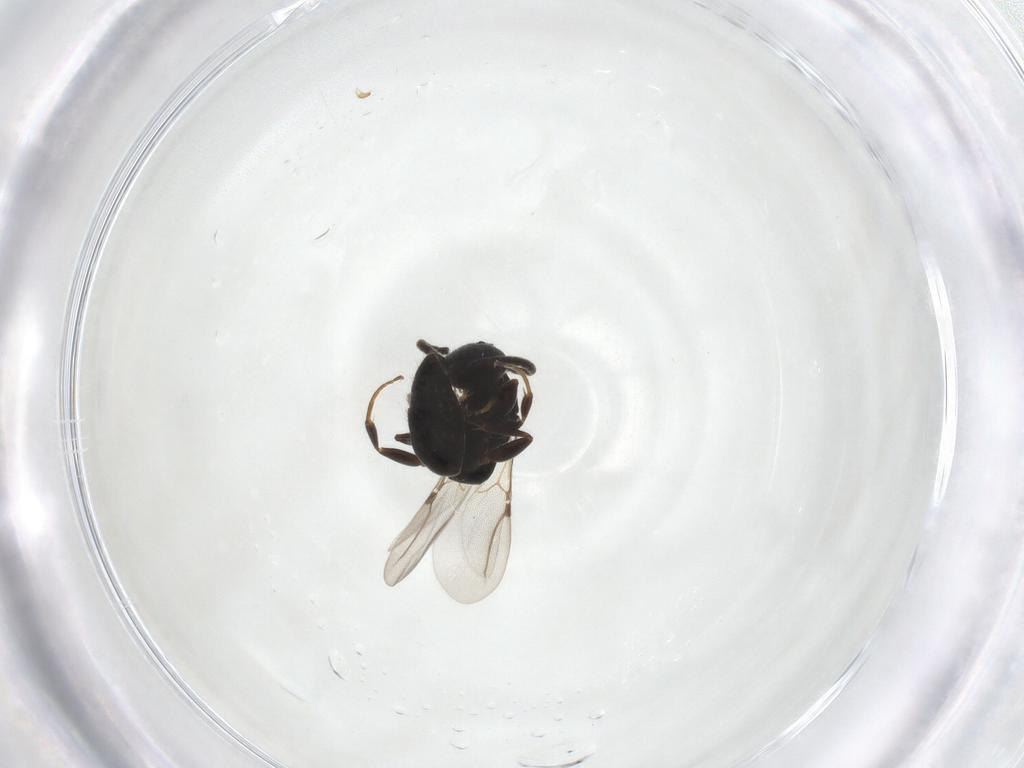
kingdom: Animalia
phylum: Arthropoda
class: Insecta
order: Hymenoptera
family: Bethylidae
